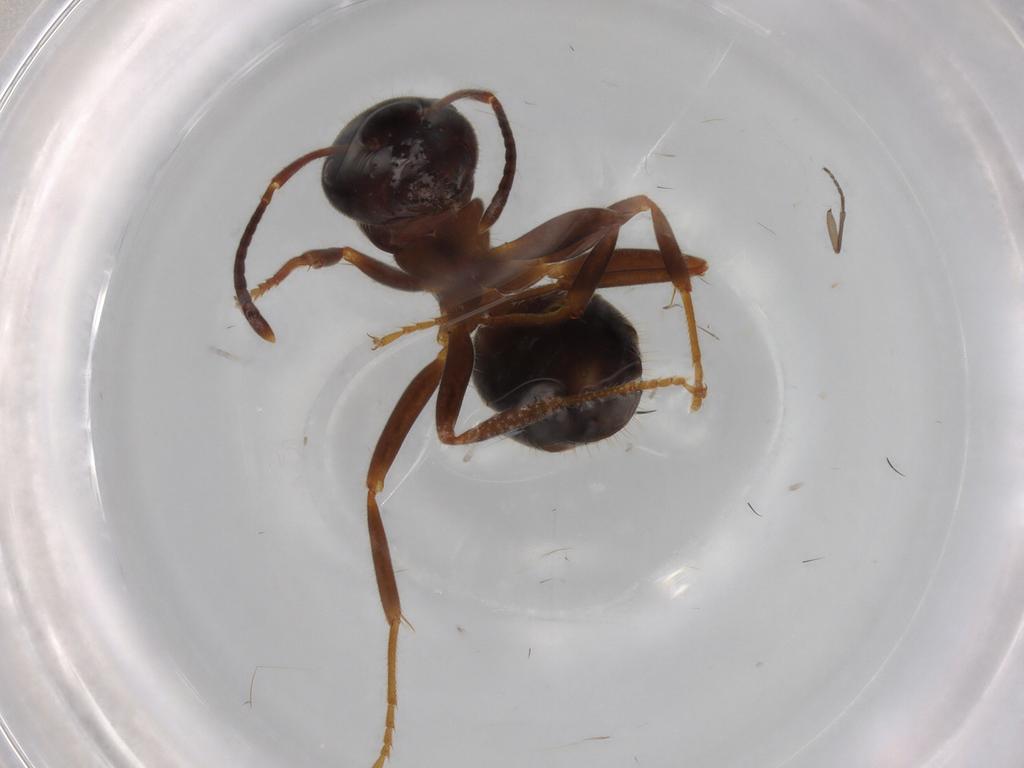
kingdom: Animalia
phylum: Arthropoda
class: Insecta
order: Hymenoptera
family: Formicidae
